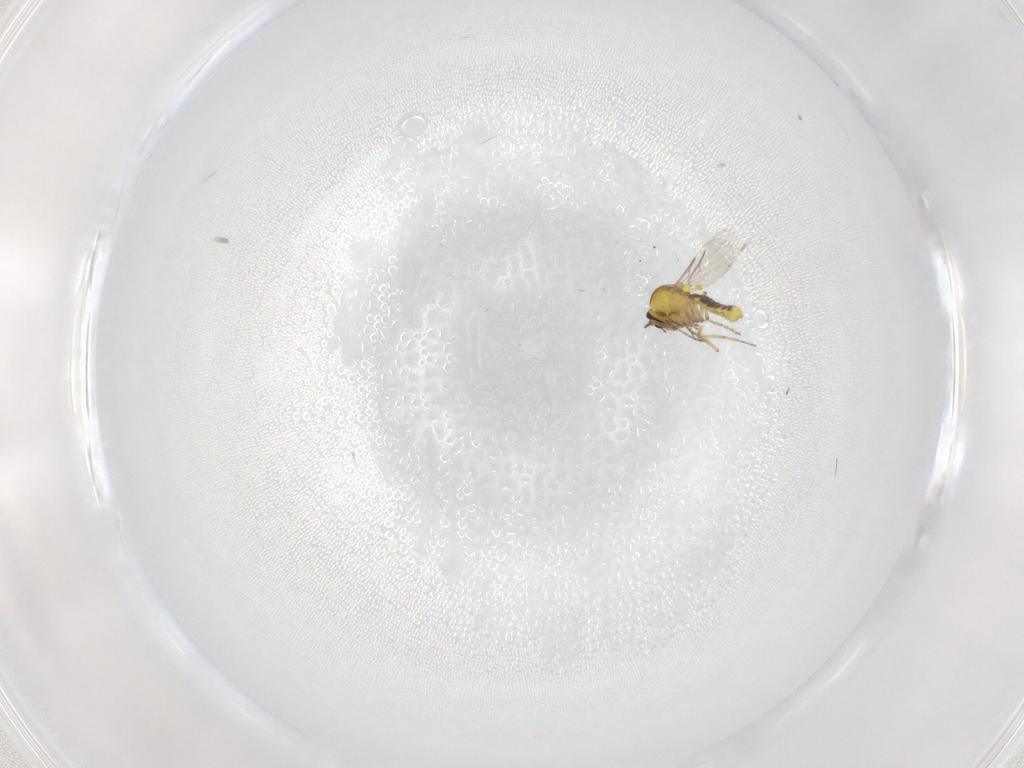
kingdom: Animalia
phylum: Arthropoda
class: Insecta
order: Diptera
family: Ceratopogonidae
